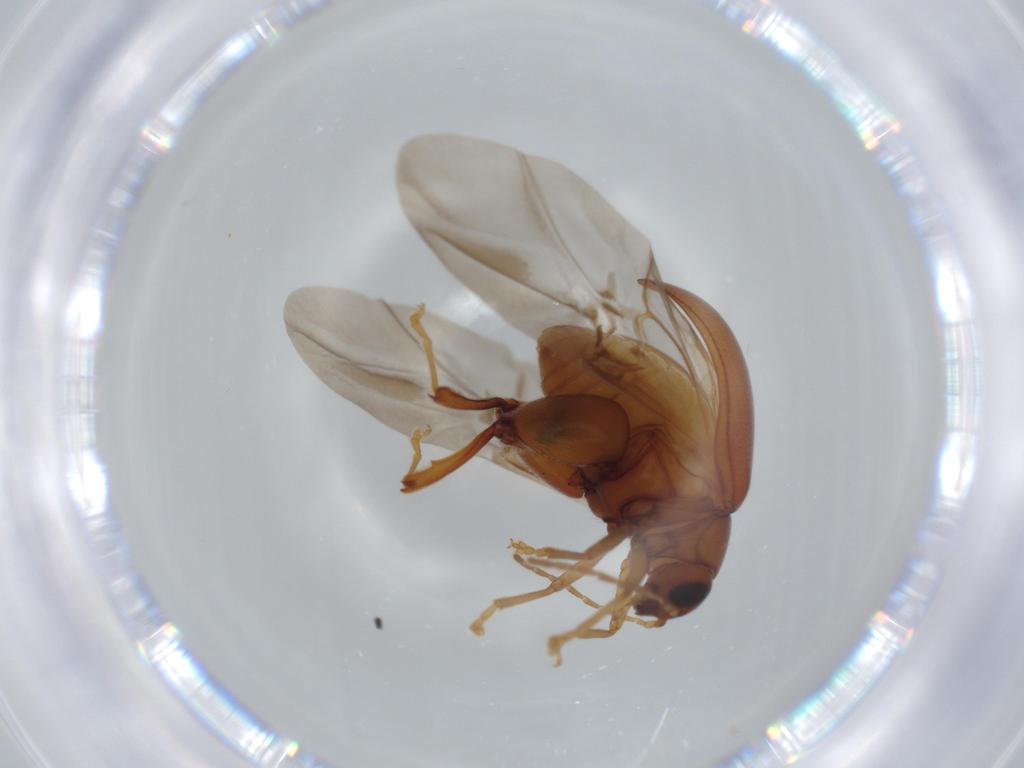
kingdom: Animalia
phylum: Arthropoda
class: Insecta
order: Coleoptera
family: Chrysomelidae
